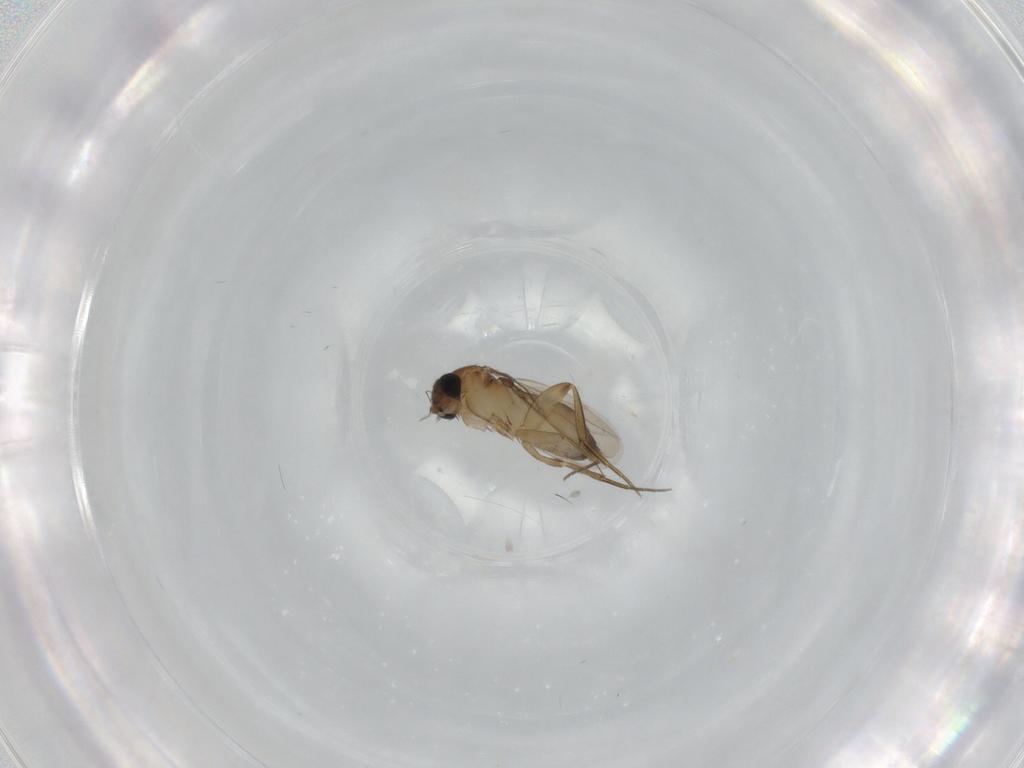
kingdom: Animalia
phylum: Arthropoda
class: Insecta
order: Diptera
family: Phoridae
